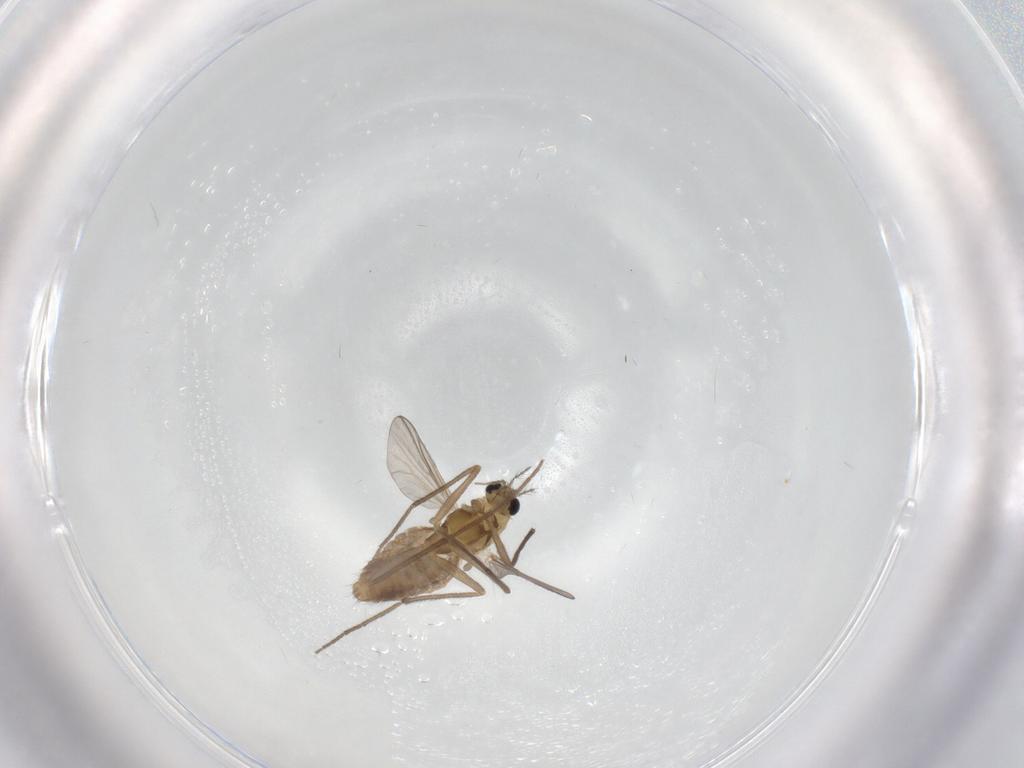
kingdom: Animalia
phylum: Arthropoda
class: Insecta
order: Diptera
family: Chironomidae
